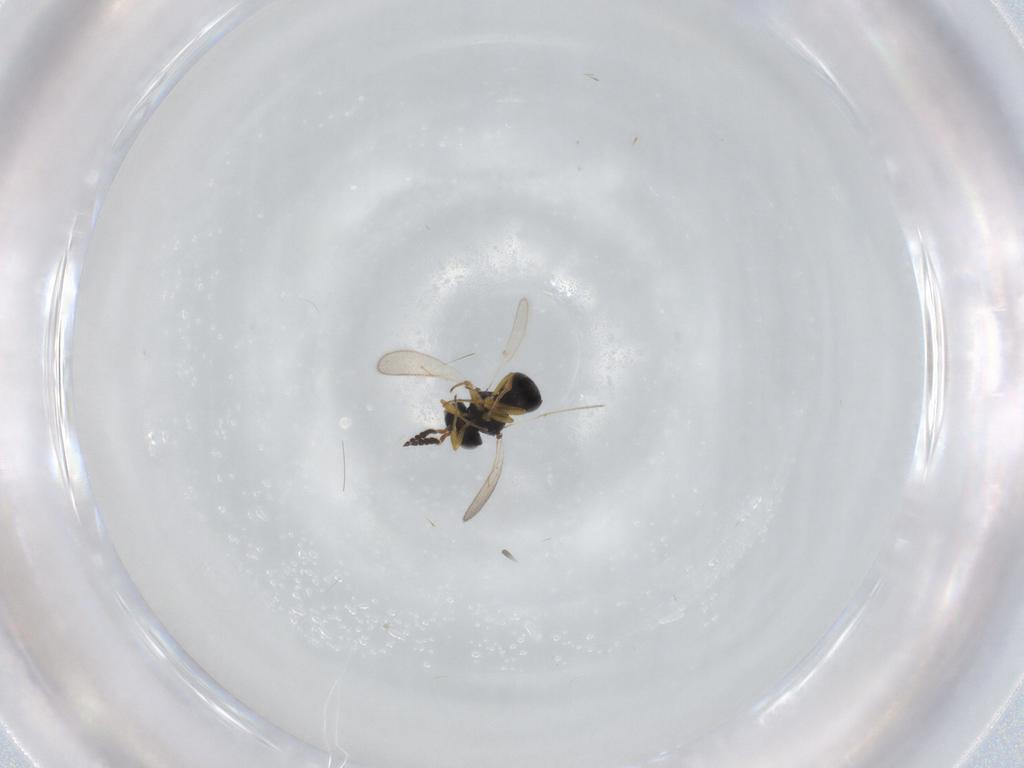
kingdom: Animalia
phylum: Arthropoda
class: Insecta
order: Hymenoptera
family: Scelionidae
